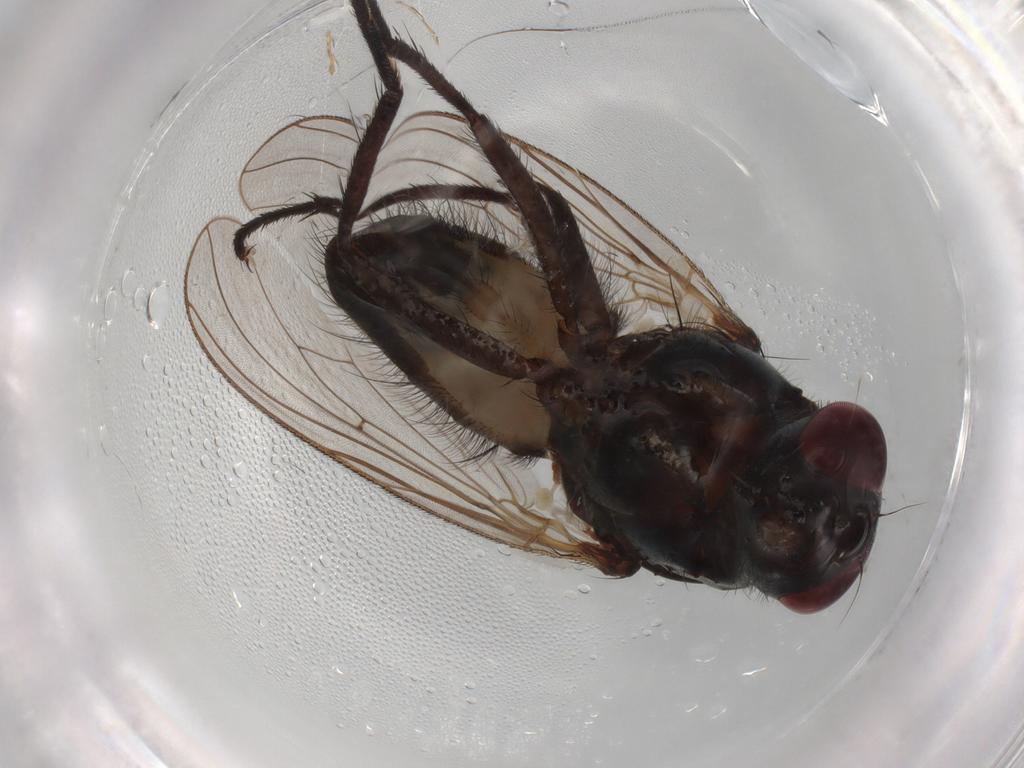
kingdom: Animalia
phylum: Arthropoda
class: Insecta
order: Diptera
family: Anthomyiidae
